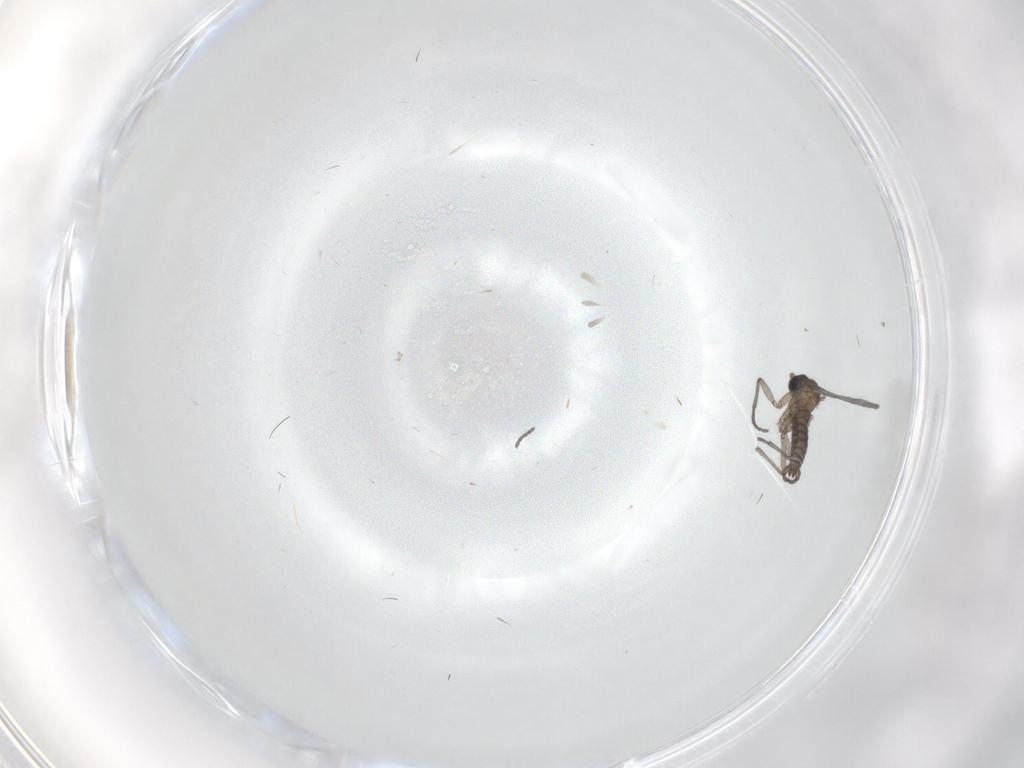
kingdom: Animalia
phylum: Arthropoda
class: Insecta
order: Diptera
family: Sciaridae
